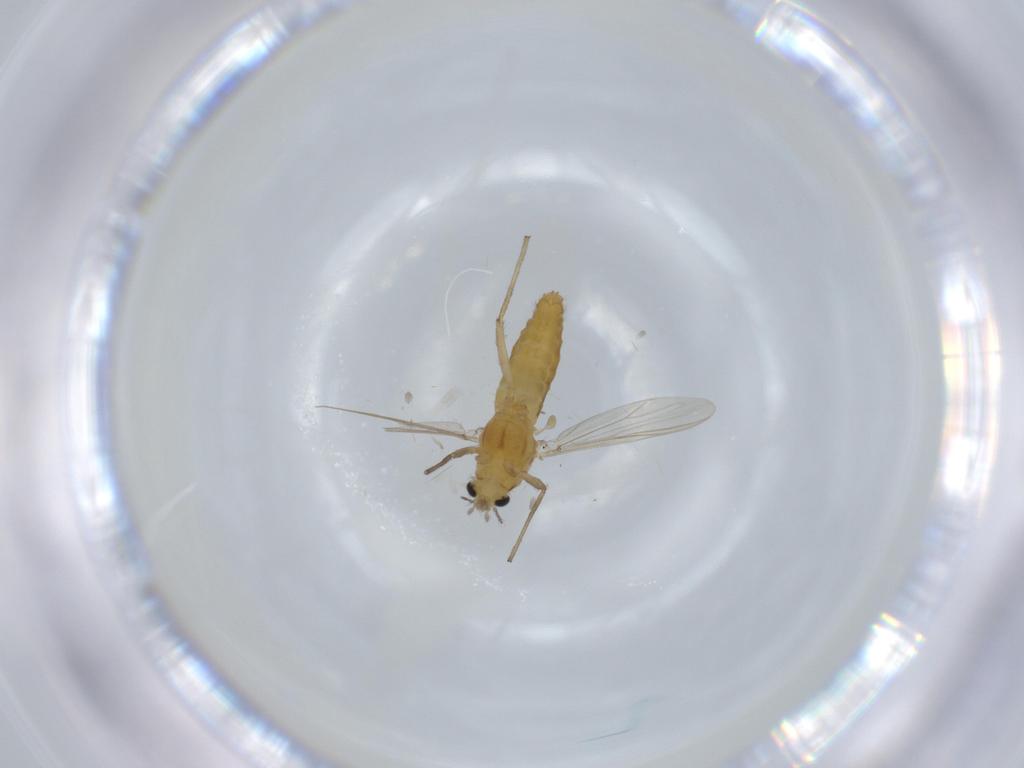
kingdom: Animalia
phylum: Arthropoda
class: Insecta
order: Diptera
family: Chironomidae
